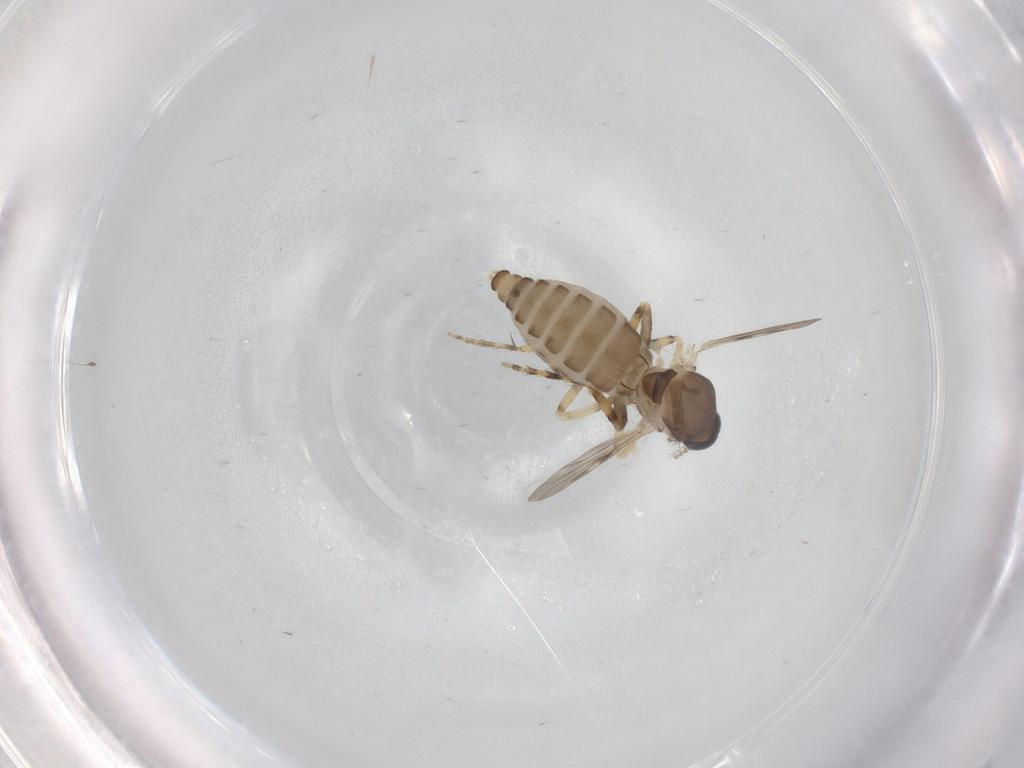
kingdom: Animalia
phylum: Arthropoda
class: Insecta
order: Diptera
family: Ceratopogonidae
